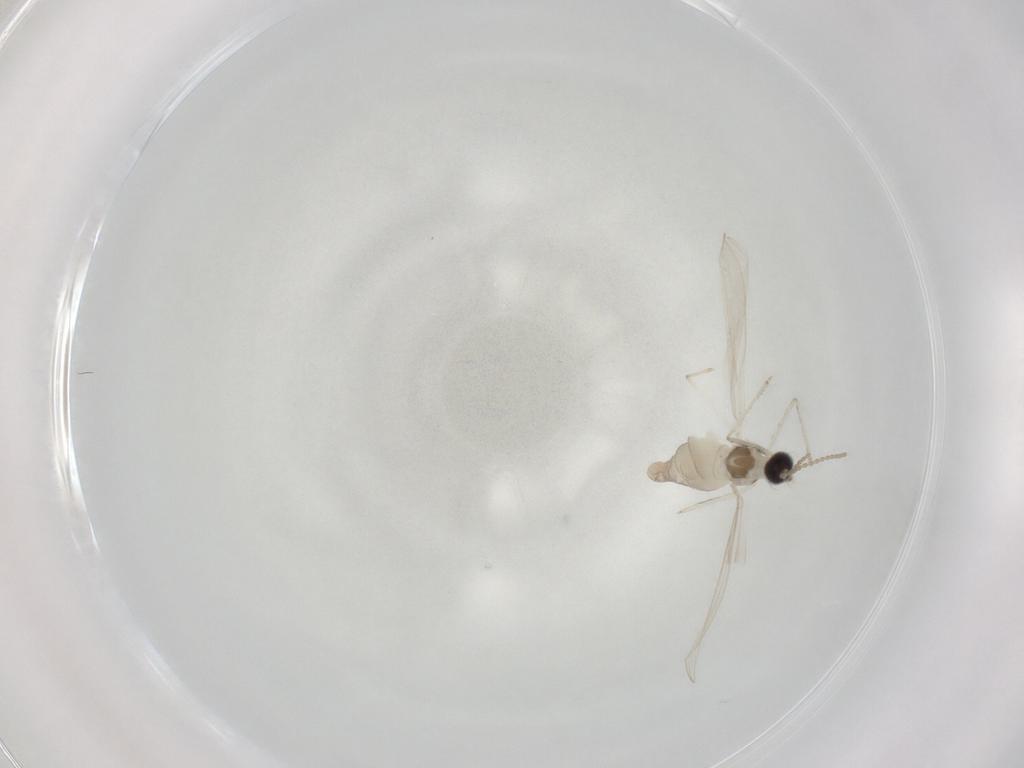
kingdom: Animalia
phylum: Arthropoda
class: Insecta
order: Diptera
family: Cecidomyiidae
